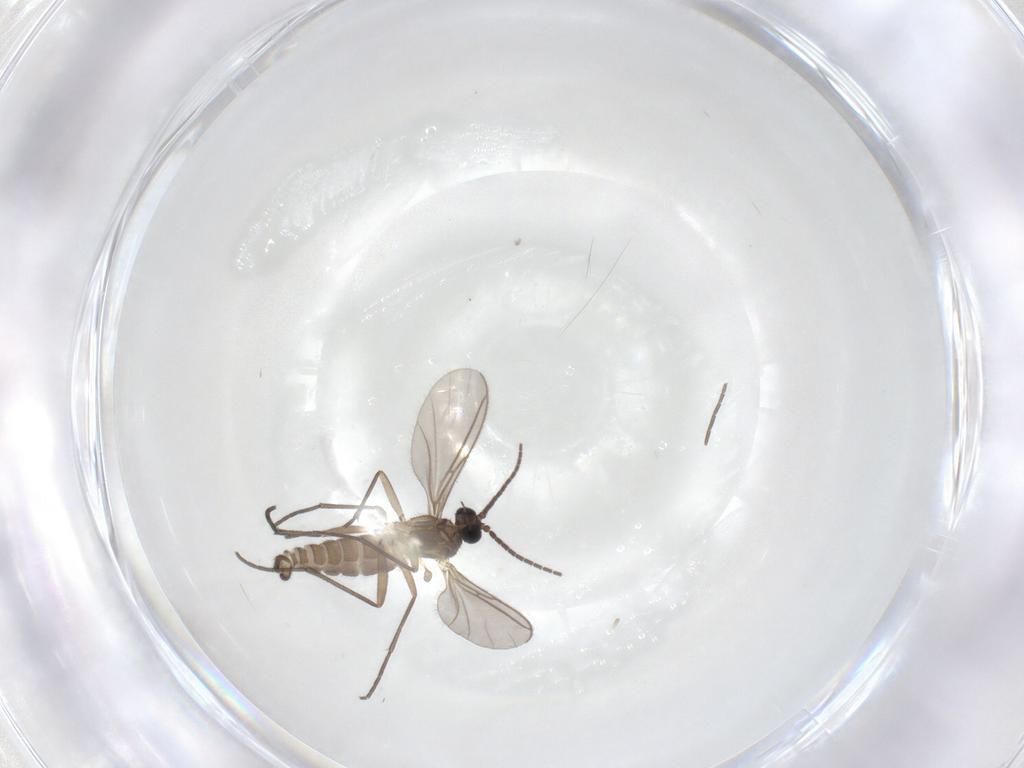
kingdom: Animalia
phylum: Arthropoda
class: Insecta
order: Diptera
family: Sciaridae
